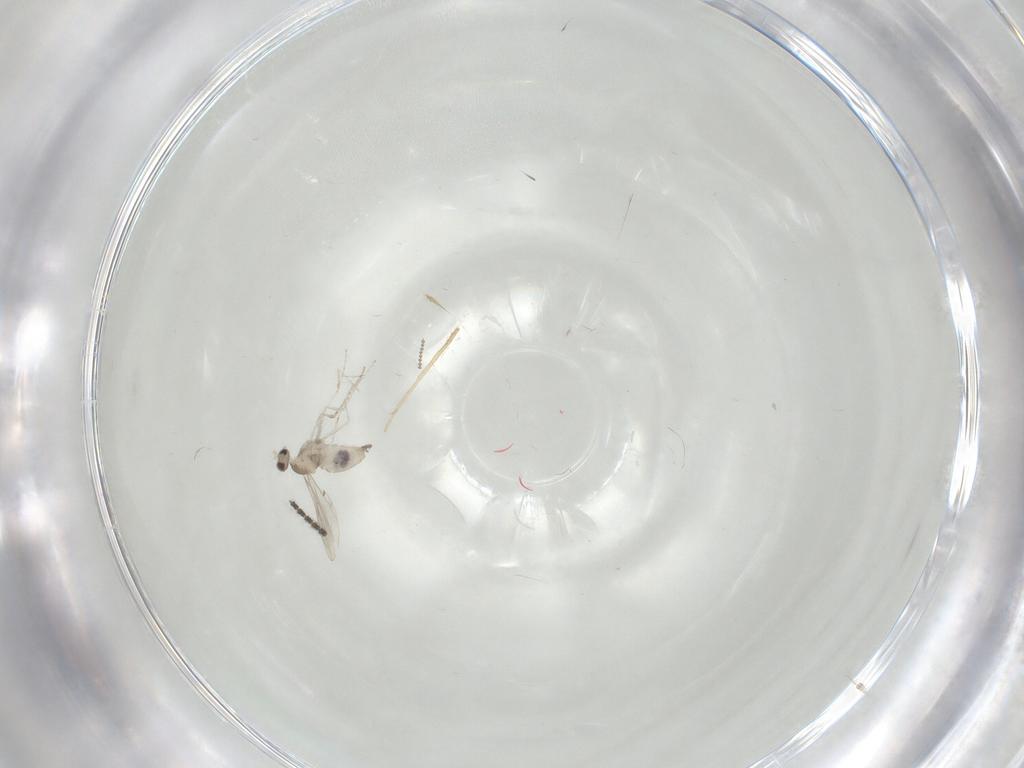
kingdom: Animalia
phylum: Arthropoda
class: Insecta
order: Diptera
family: Cecidomyiidae
